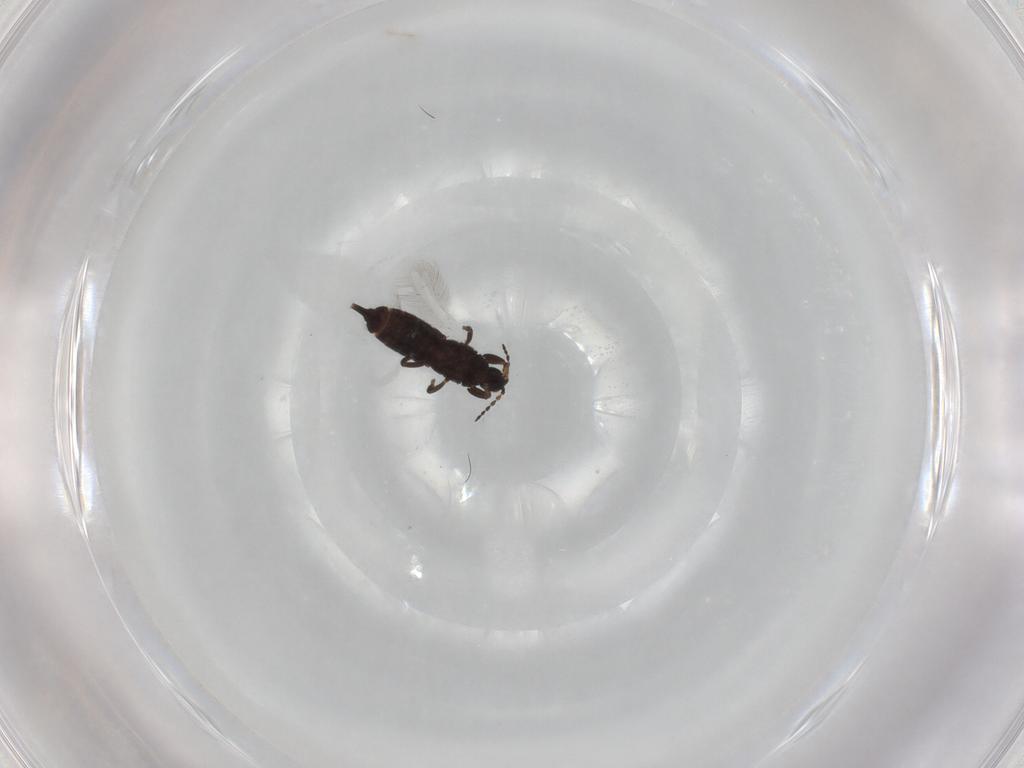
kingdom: Animalia
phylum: Arthropoda
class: Insecta
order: Thysanoptera
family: Phlaeothripidae
